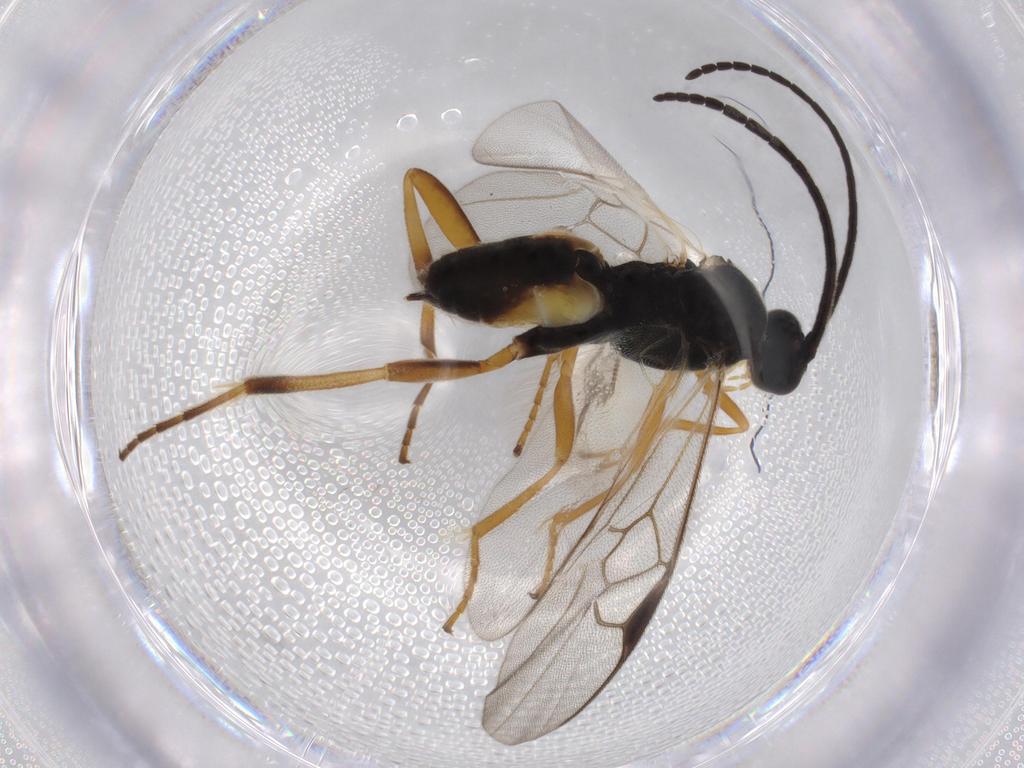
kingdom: Animalia
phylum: Arthropoda
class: Insecta
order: Hymenoptera
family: Braconidae
